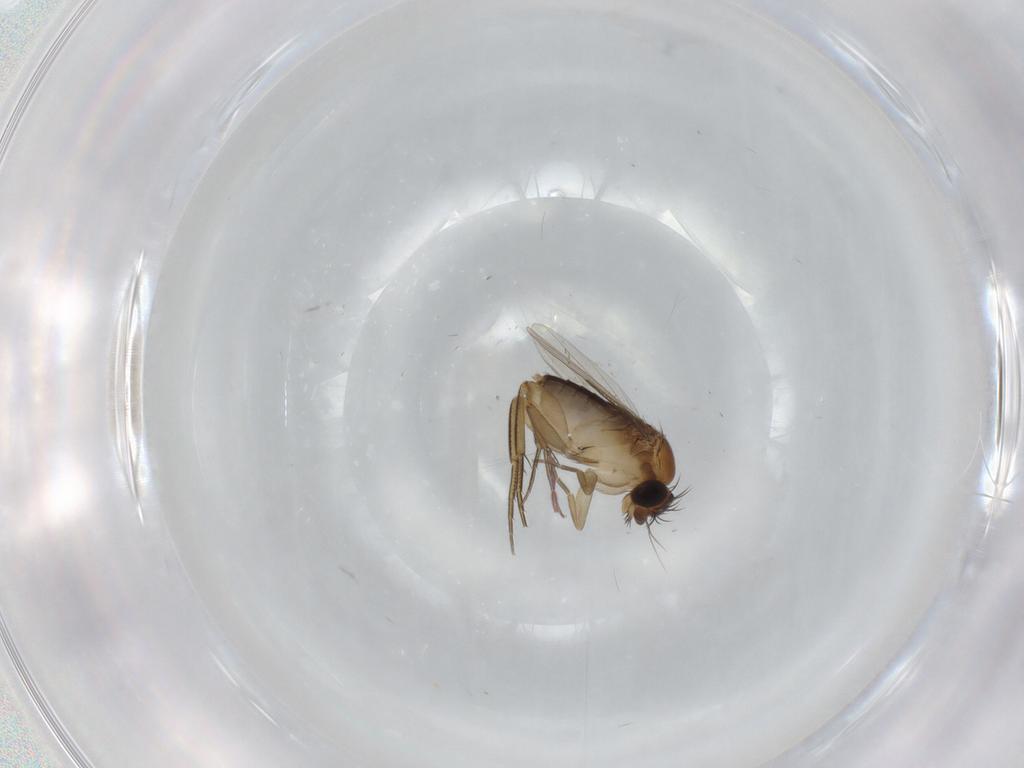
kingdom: Animalia
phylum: Arthropoda
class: Insecta
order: Diptera
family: Phoridae
